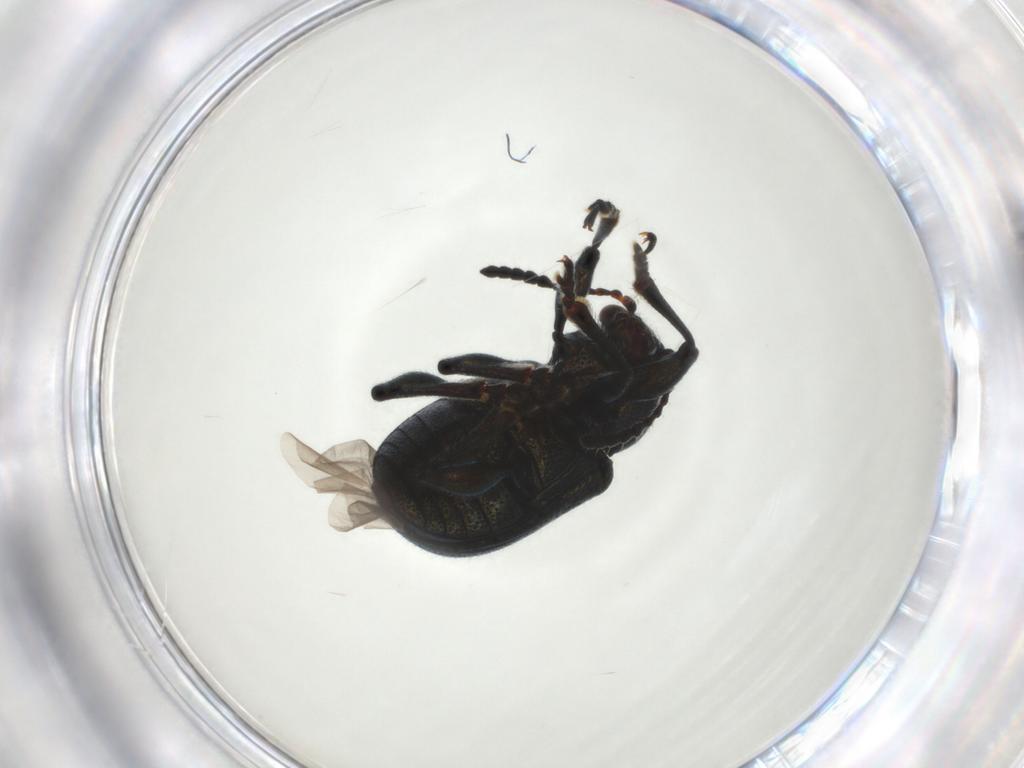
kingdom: Animalia
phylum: Arthropoda
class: Insecta
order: Coleoptera
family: Chrysomelidae
